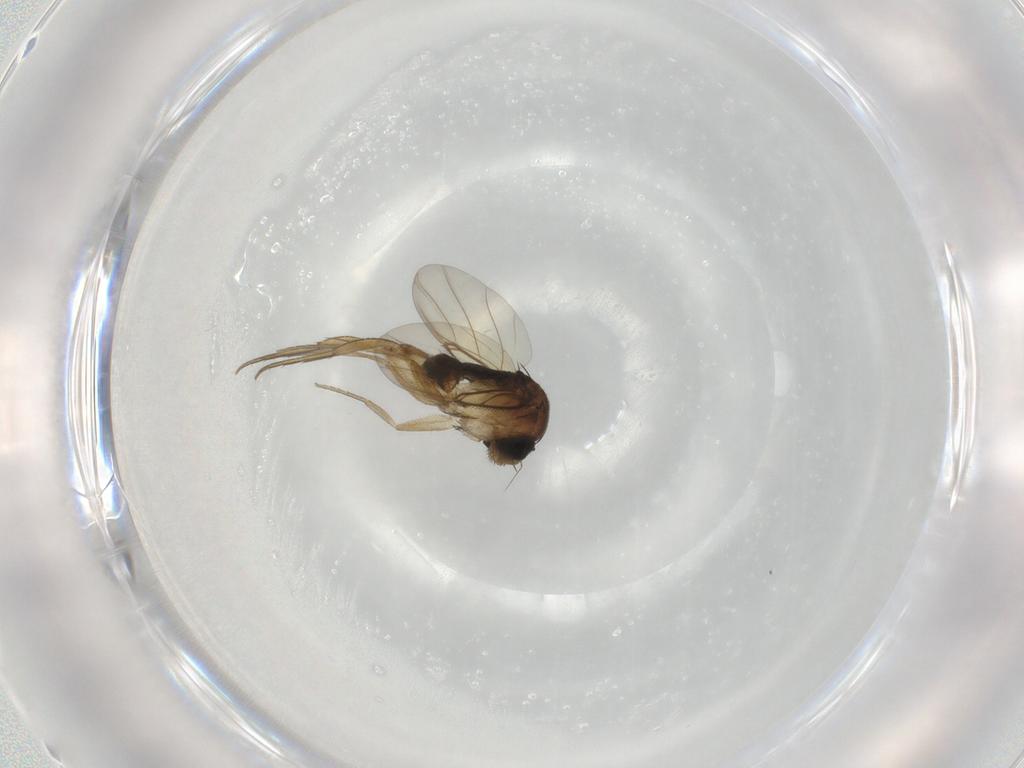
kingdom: Animalia
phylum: Arthropoda
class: Insecta
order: Diptera
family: Phoridae
